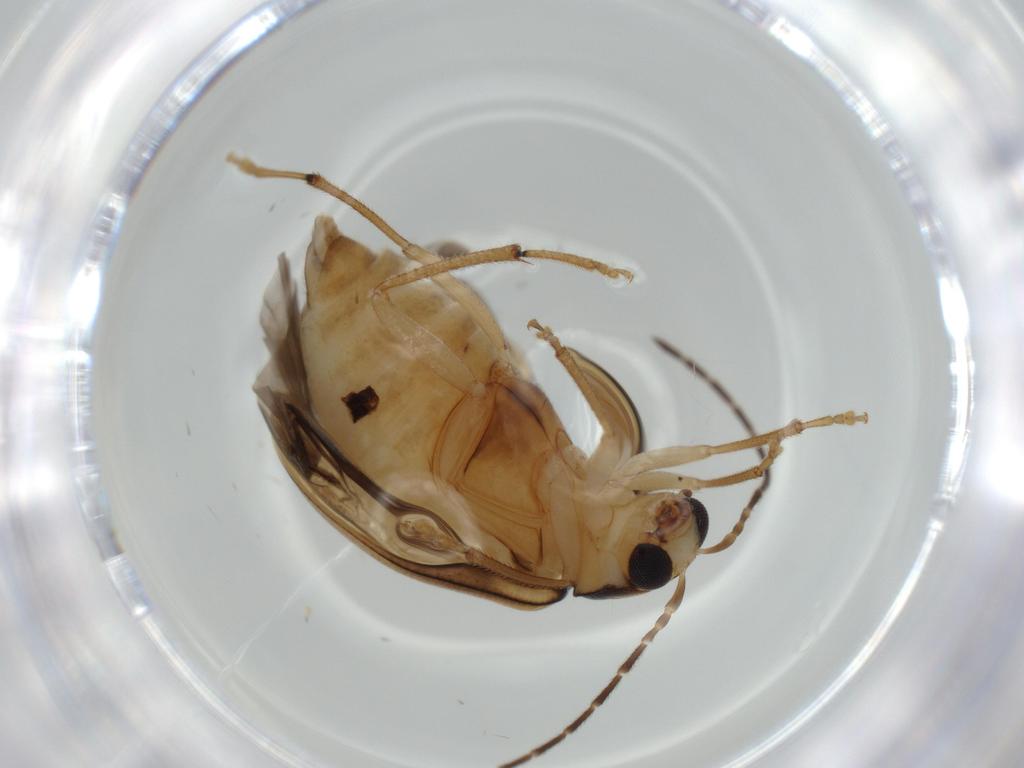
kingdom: Animalia
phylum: Arthropoda
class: Insecta
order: Coleoptera
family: Chrysomelidae
